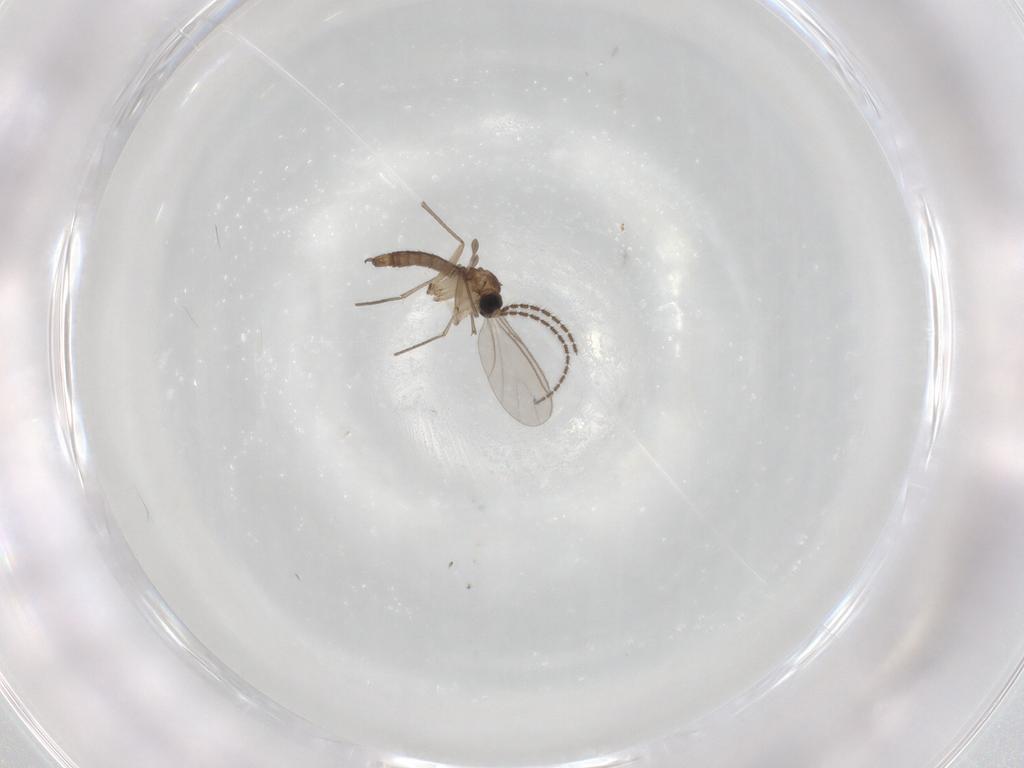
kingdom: Animalia
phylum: Arthropoda
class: Insecta
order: Diptera
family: Sciaridae
